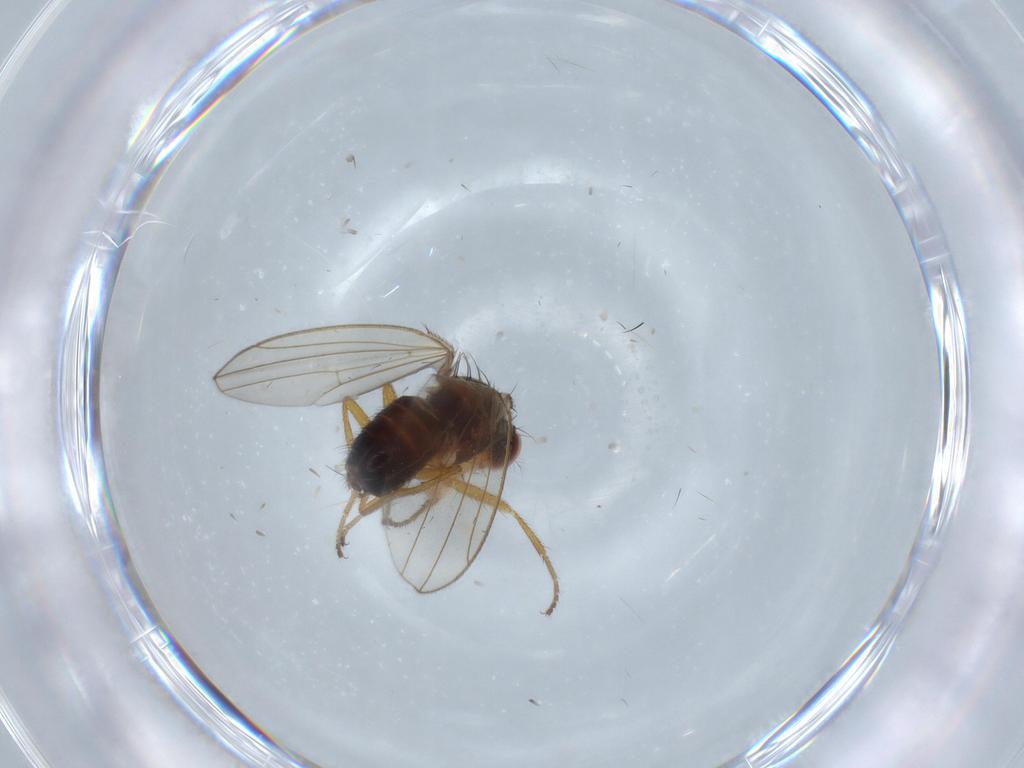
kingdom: Animalia
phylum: Arthropoda
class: Insecta
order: Diptera
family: Drosophilidae
